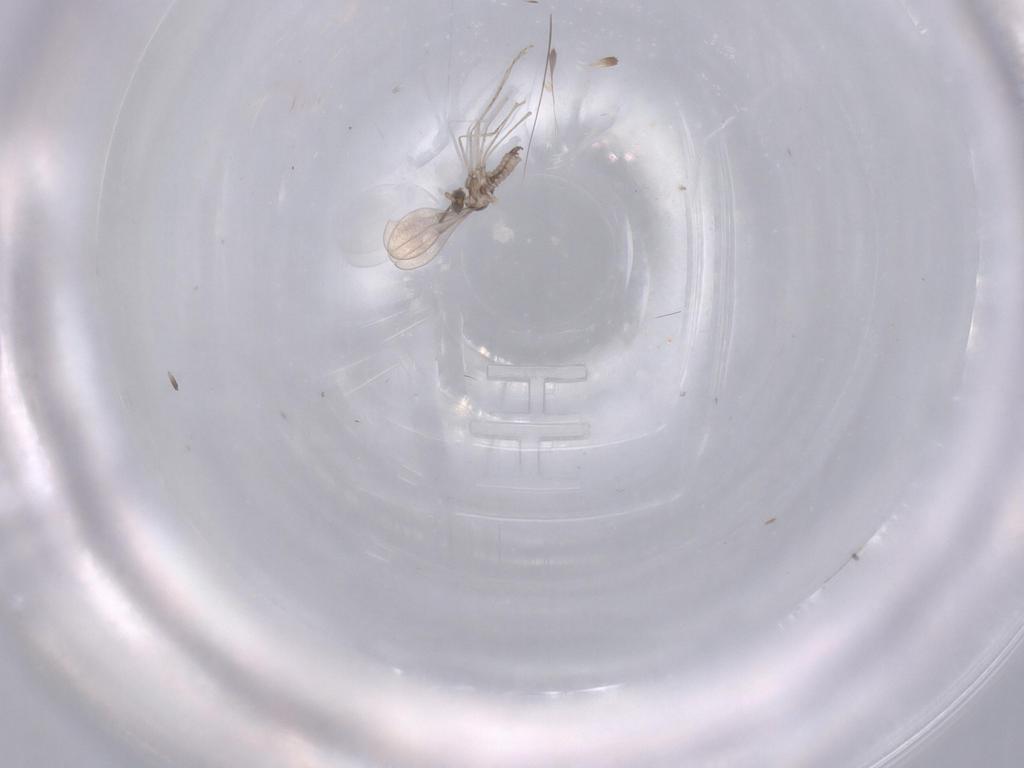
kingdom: Animalia
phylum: Arthropoda
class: Insecta
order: Diptera
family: Cecidomyiidae
